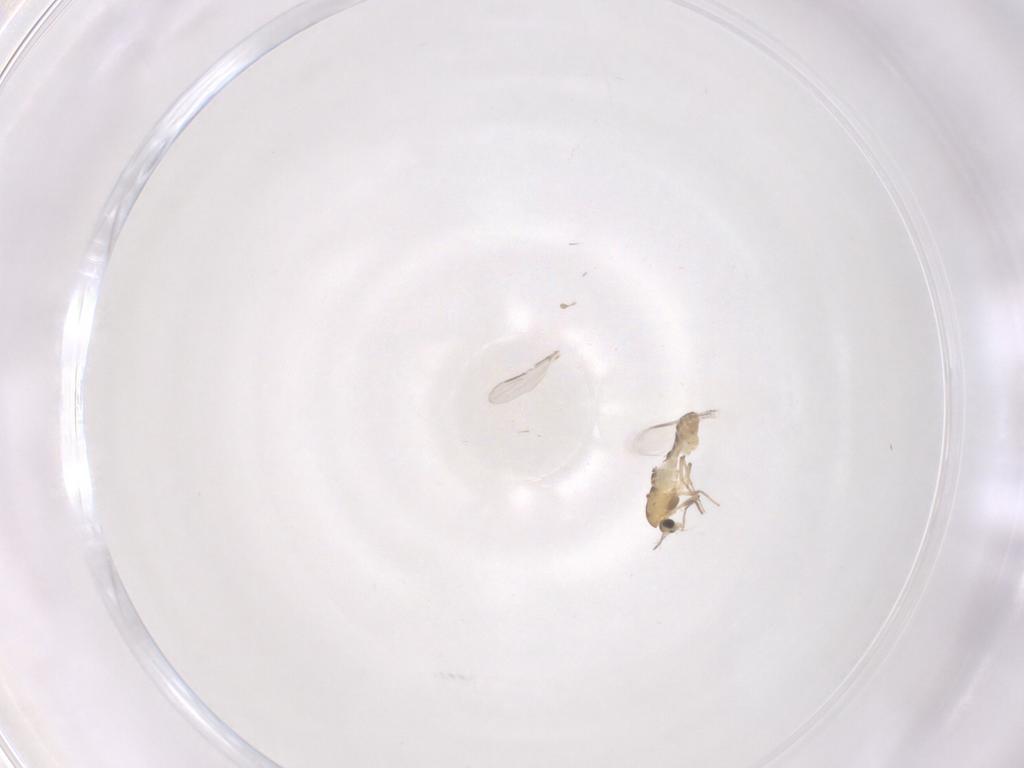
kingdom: Animalia
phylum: Arthropoda
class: Insecta
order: Diptera
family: Chironomidae
